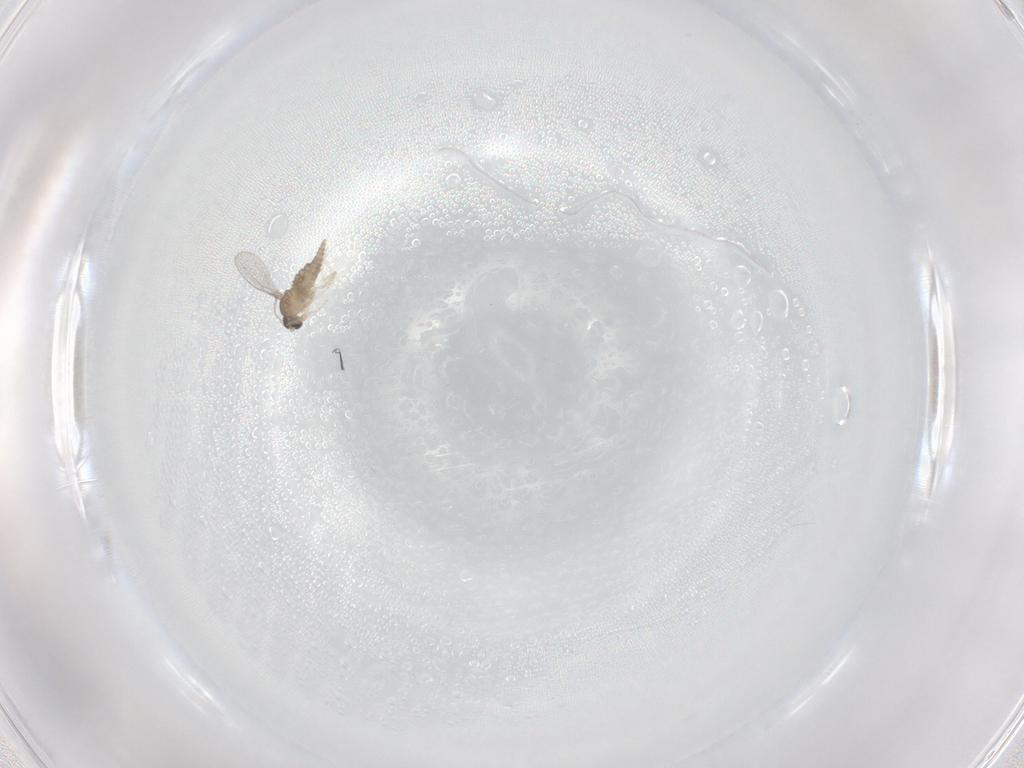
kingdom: Animalia
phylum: Arthropoda
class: Insecta
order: Diptera
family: Cecidomyiidae
